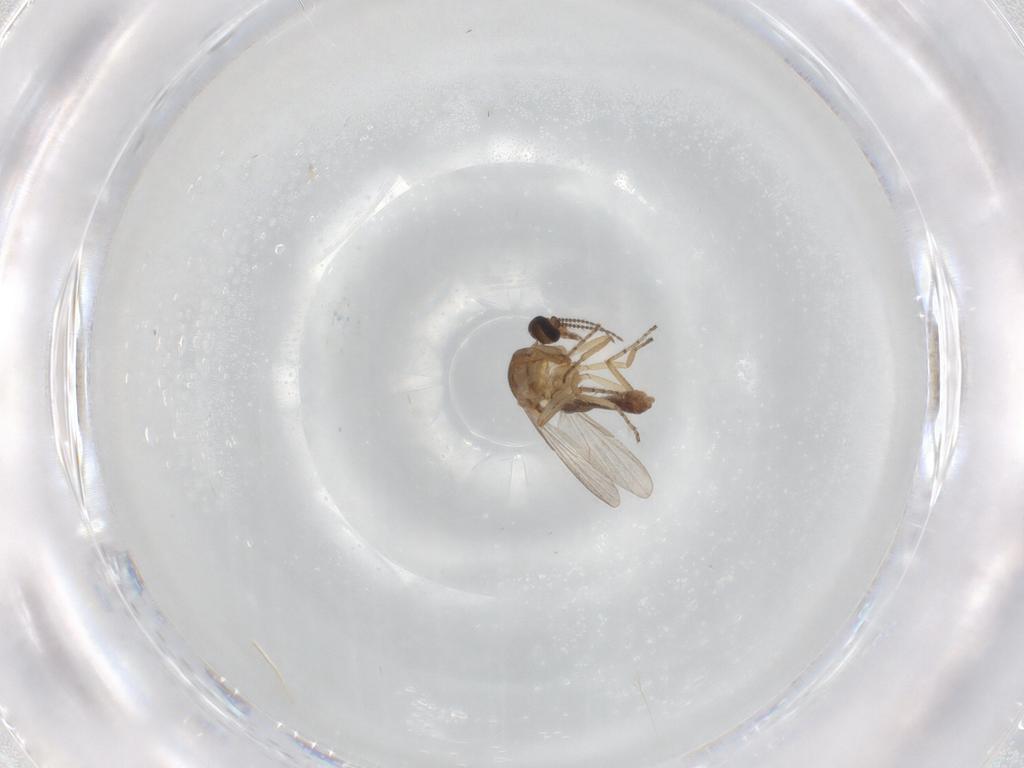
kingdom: Animalia
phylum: Arthropoda
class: Insecta
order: Diptera
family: Ceratopogonidae
